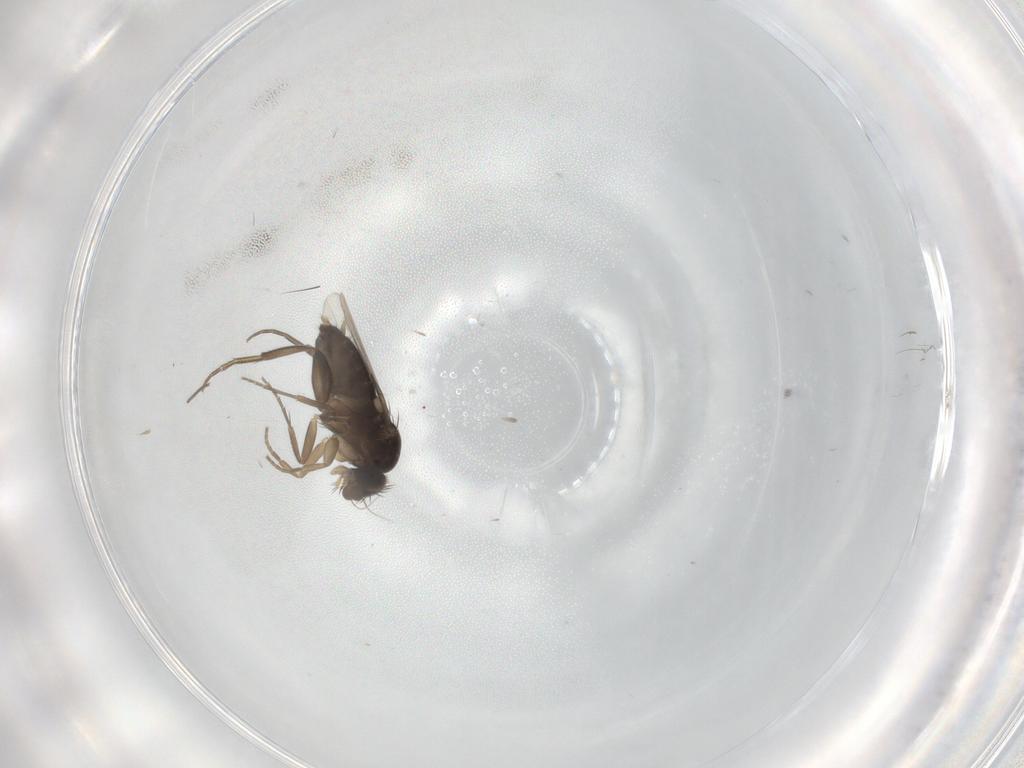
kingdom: Animalia
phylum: Arthropoda
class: Insecta
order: Diptera
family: Phoridae
